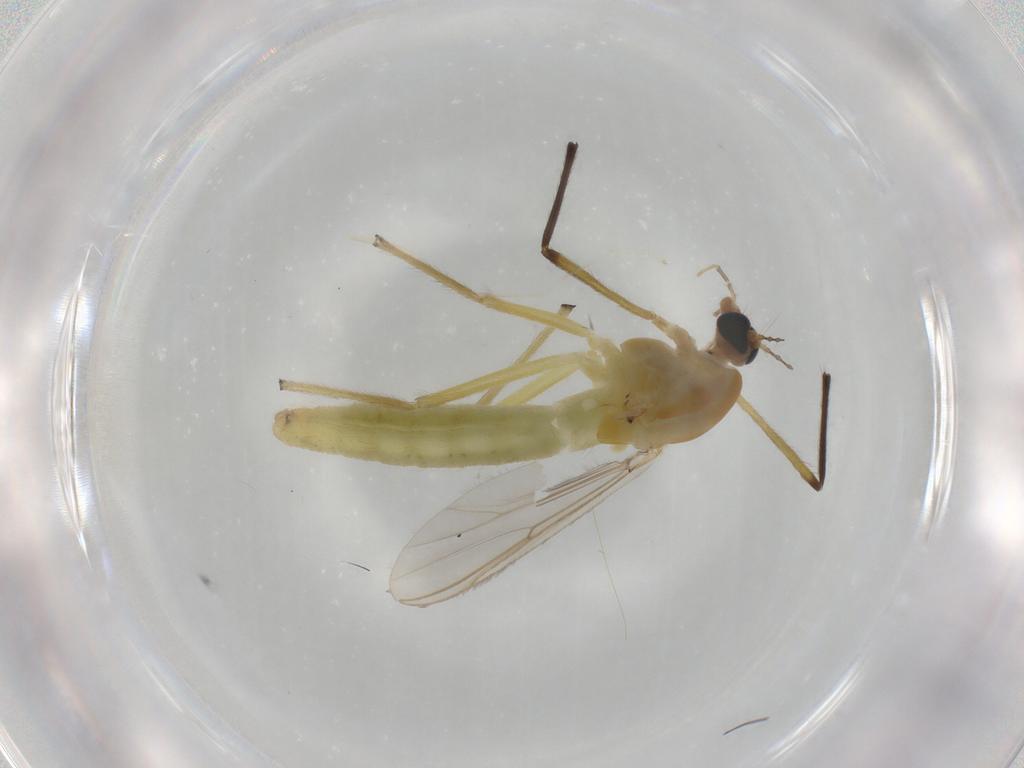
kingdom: Animalia
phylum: Arthropoda
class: Insecta
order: Diptera
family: Chironomidae
